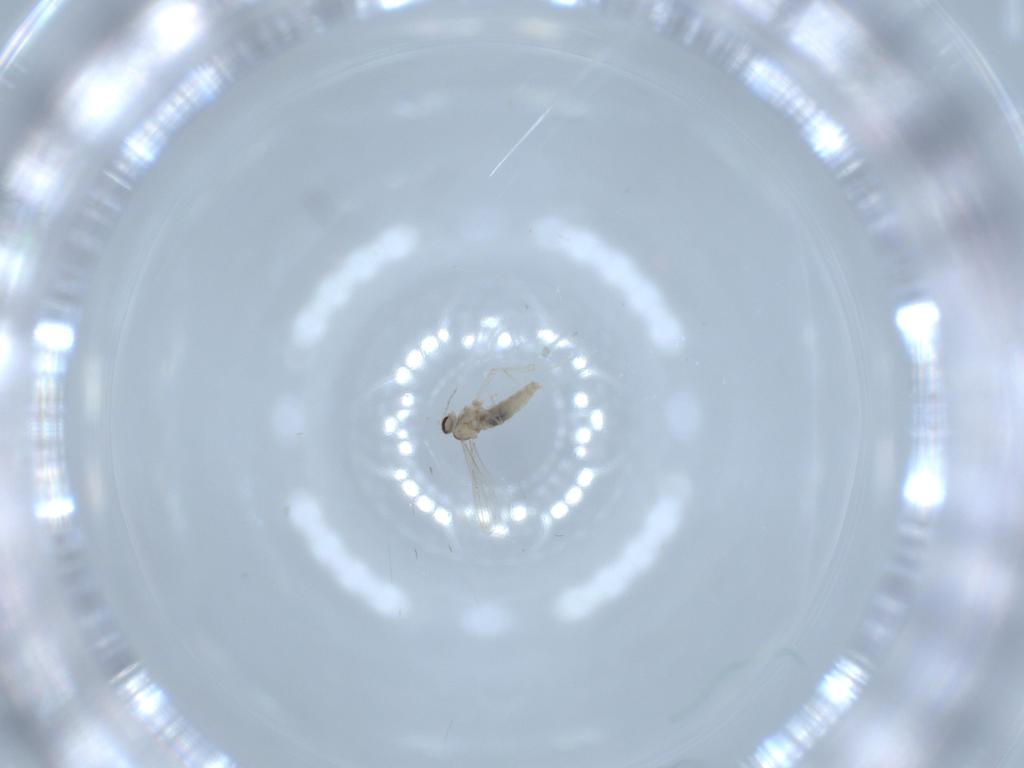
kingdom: Animalia
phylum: Arthropoda
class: Insecta
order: Diptera
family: Cecidomyiidae
